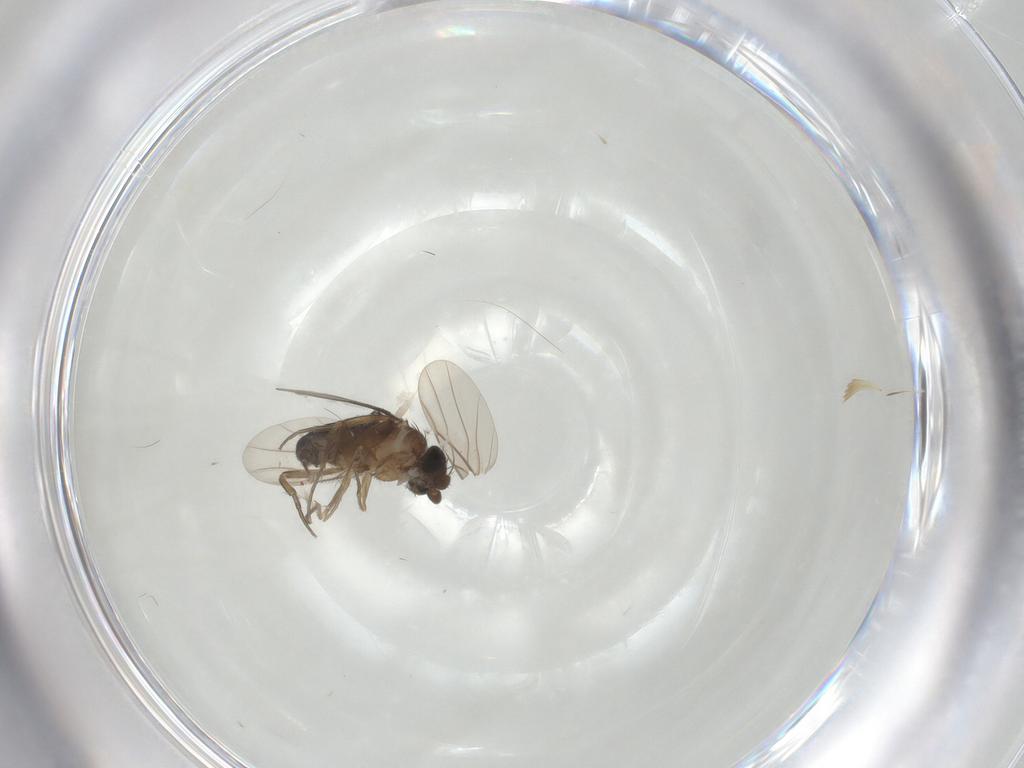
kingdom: Animalia
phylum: Arthropoda
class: Insecta
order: Diptera
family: Blephariceridae
